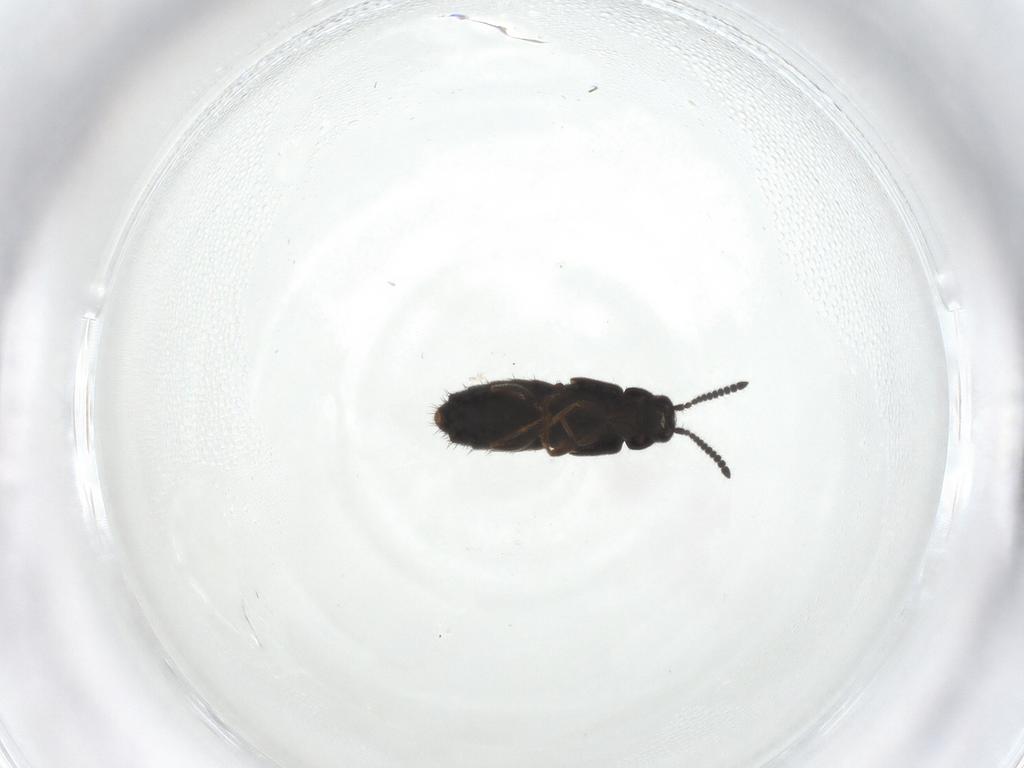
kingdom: Animalia
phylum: Arthropoda
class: Insecta
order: Coleoptera
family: Staphylinidae
